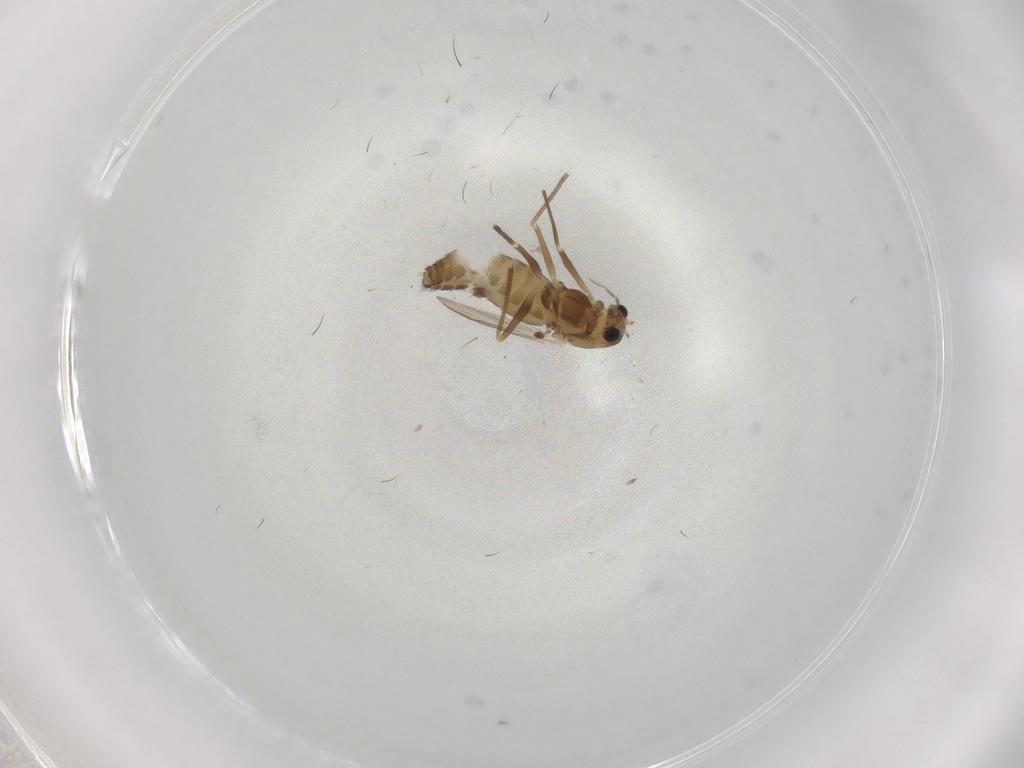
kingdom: Animalia
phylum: Arthropoda
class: Insecta
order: Diptera
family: Chironomidae
